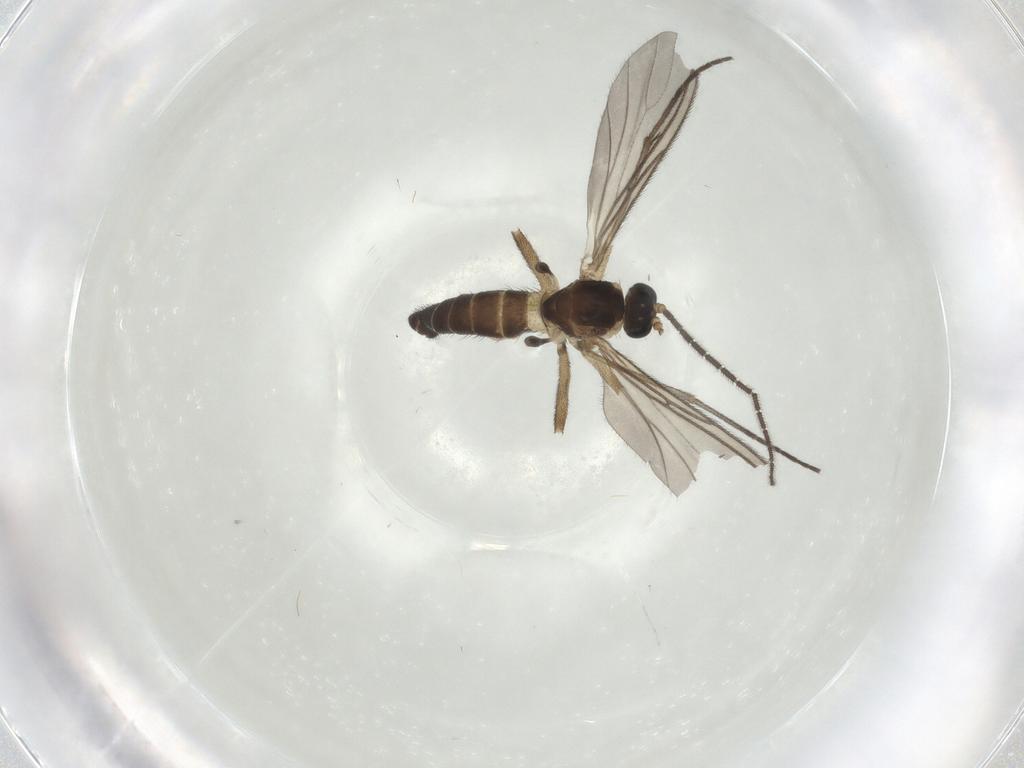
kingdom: Animalia
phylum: Arthropoda
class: Insecta
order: Diptera
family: Sciaridae
